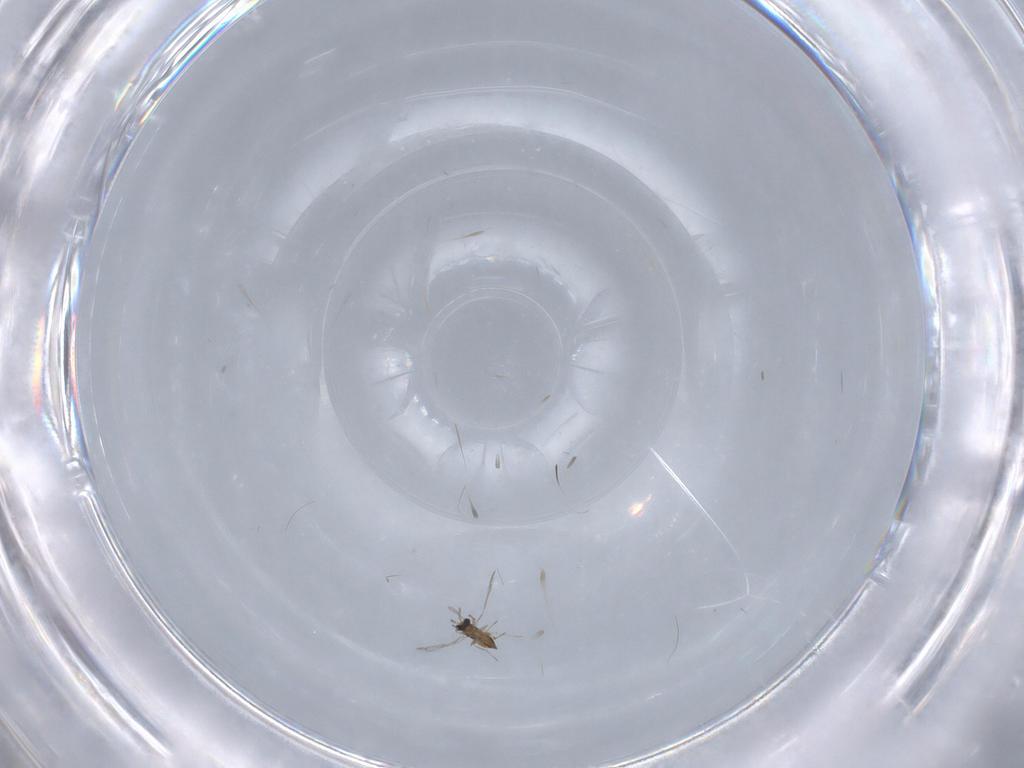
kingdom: Animalia
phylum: Arthropoda
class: Insecta
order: Hymenoptera
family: Trichogrammatidae
